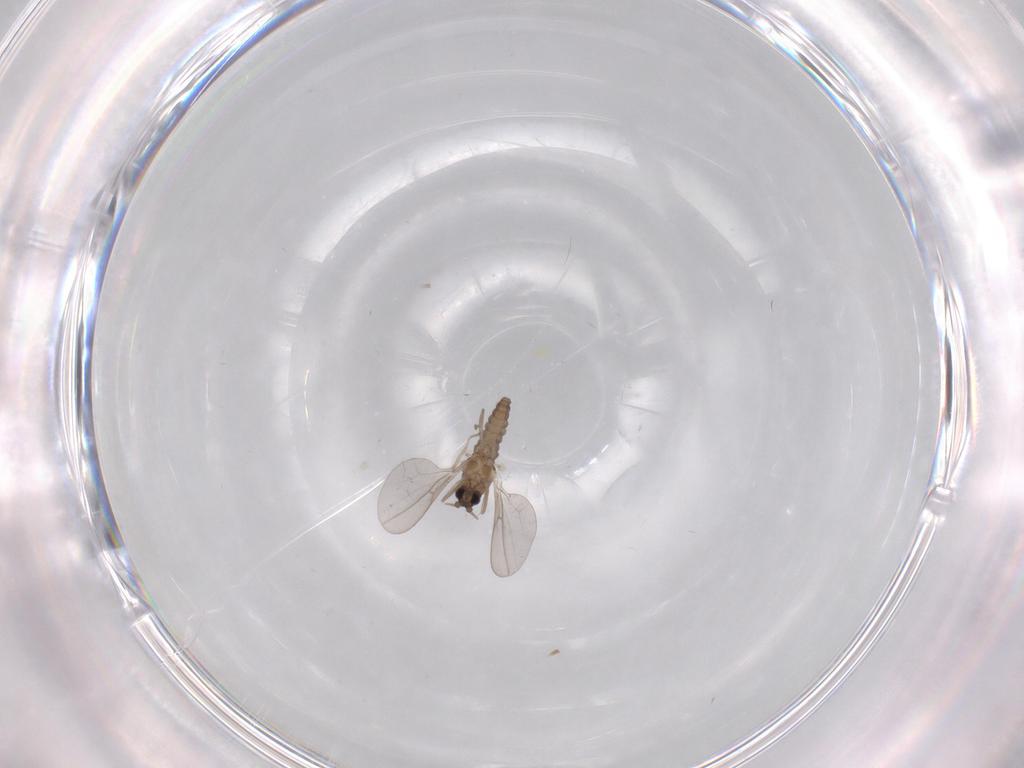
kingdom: Animalia
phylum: Arthropoda
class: Insecta
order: Diptera
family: Cecidomyiidae
